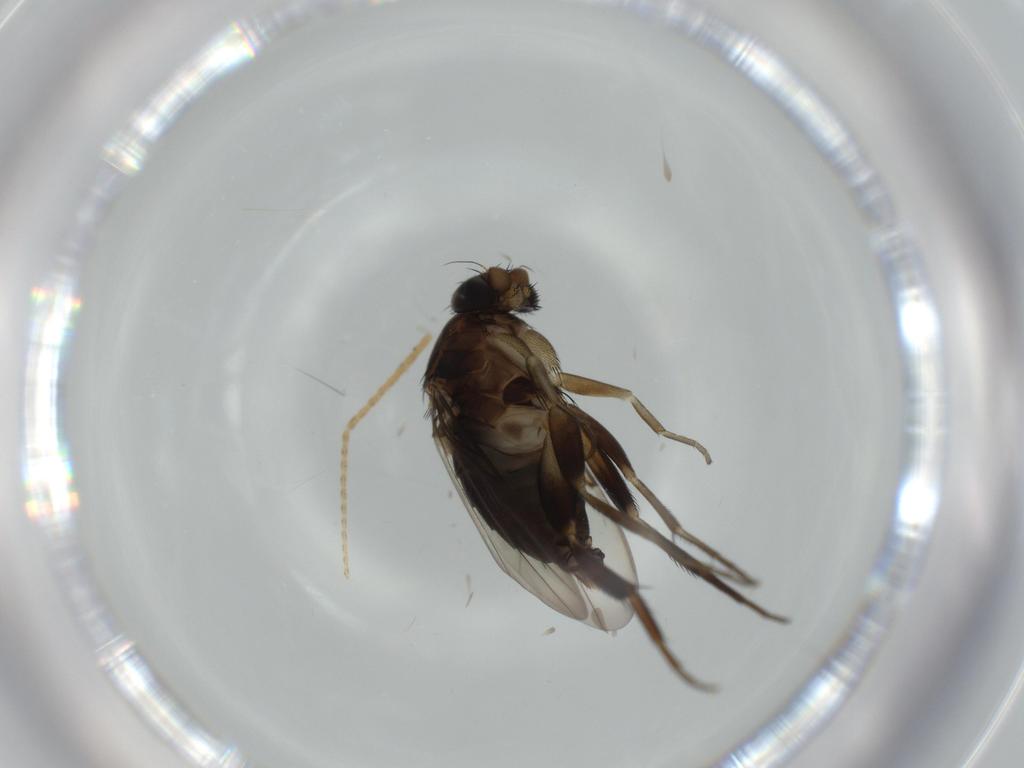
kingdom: Animalia
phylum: Arthropoda
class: Insecta
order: Diptera
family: Phoridae
